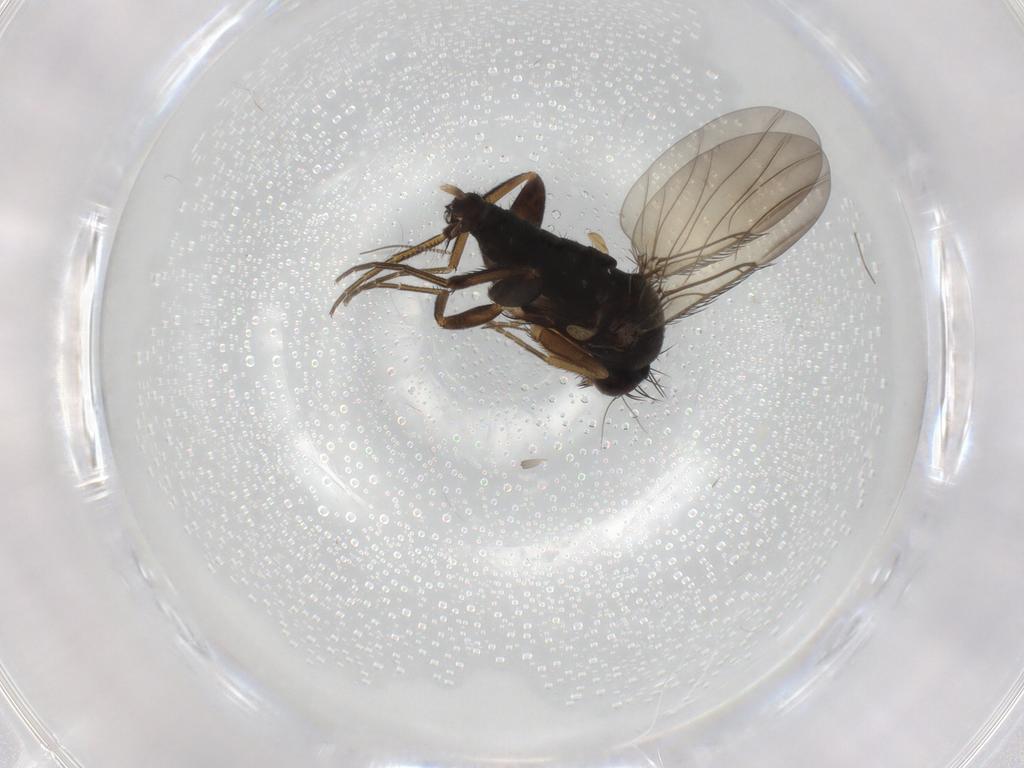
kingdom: Animalia
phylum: Arthropoda
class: Insecta
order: Diptera
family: Chironomidae
